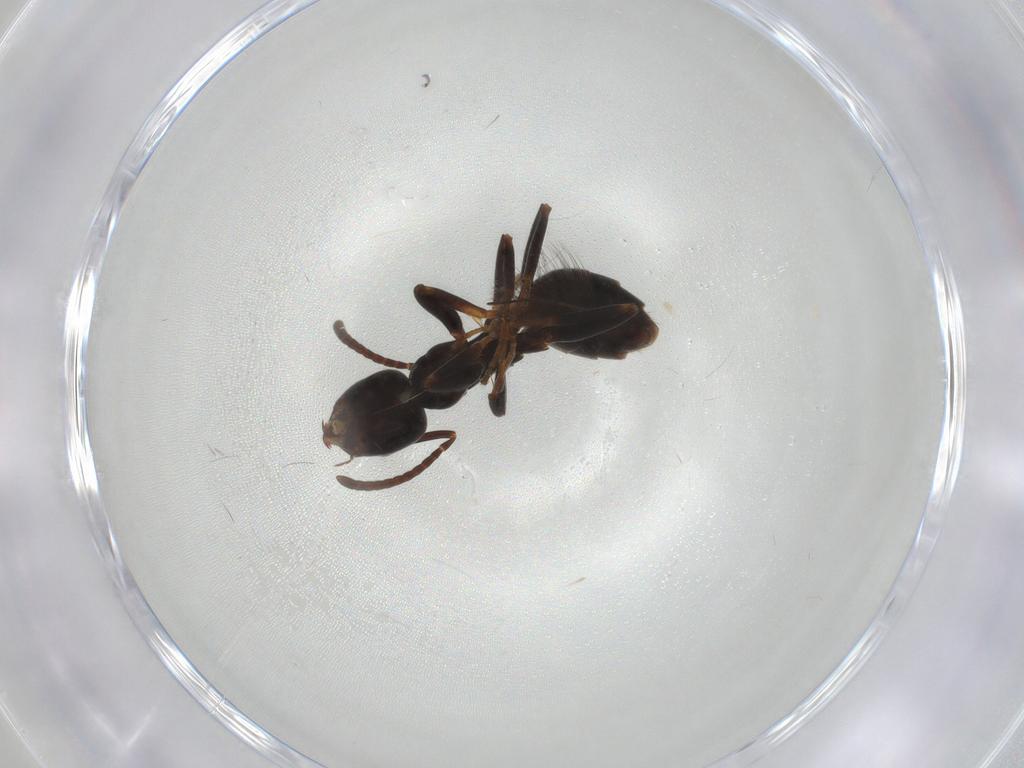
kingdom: Animalia
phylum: Arthropoda
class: Insecta
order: Hymenoptera
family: Formicidae
